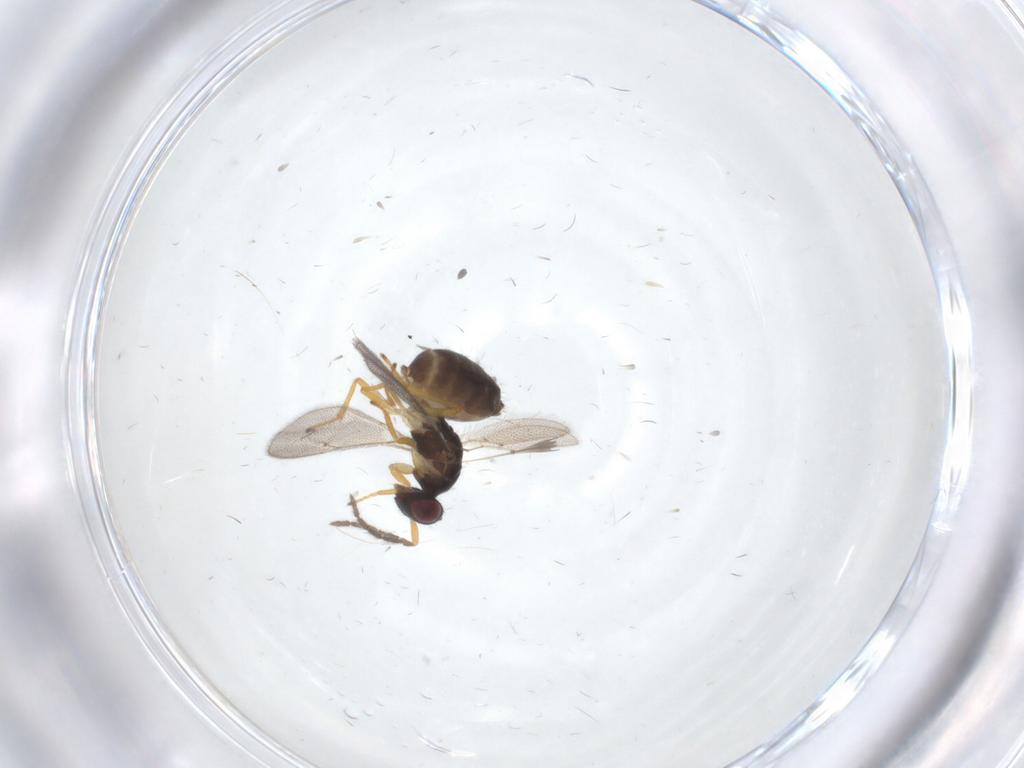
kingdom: Animalia
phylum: Arthropoda
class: Insecta
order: Hymenoptera
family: Eulophidae
